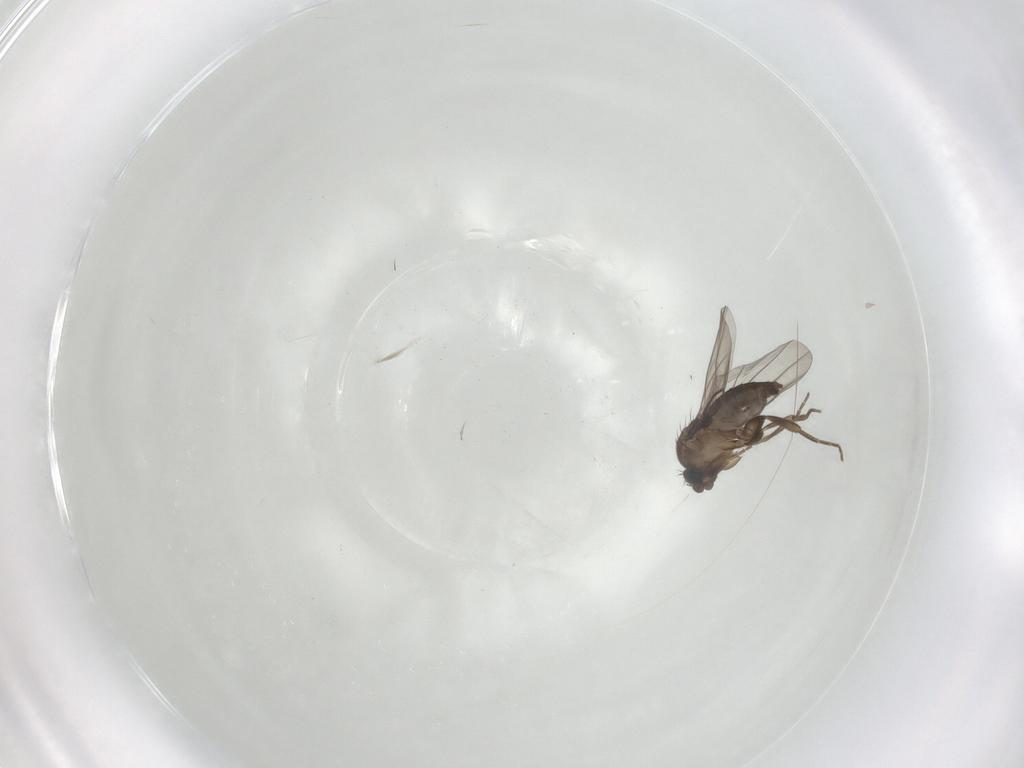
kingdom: Animalia
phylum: Arthropoda
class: Insecta
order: Diptera
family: Phoridae
